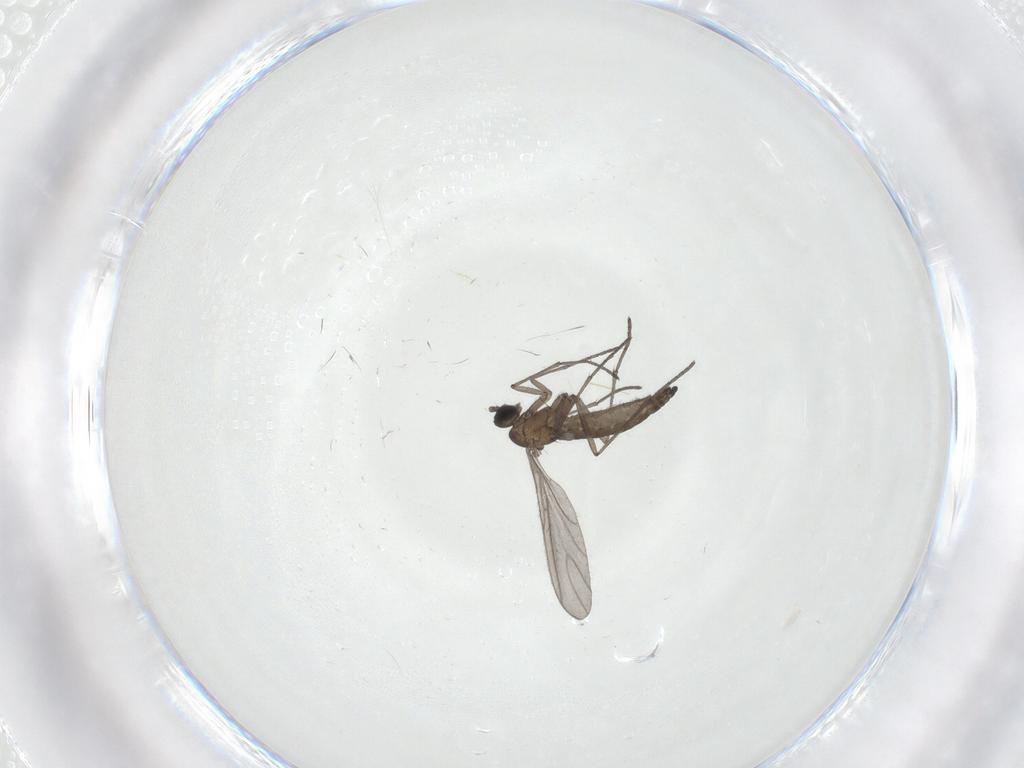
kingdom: Animalia
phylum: Arthropoda
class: Insecta
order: Diptera
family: Sciaridae
